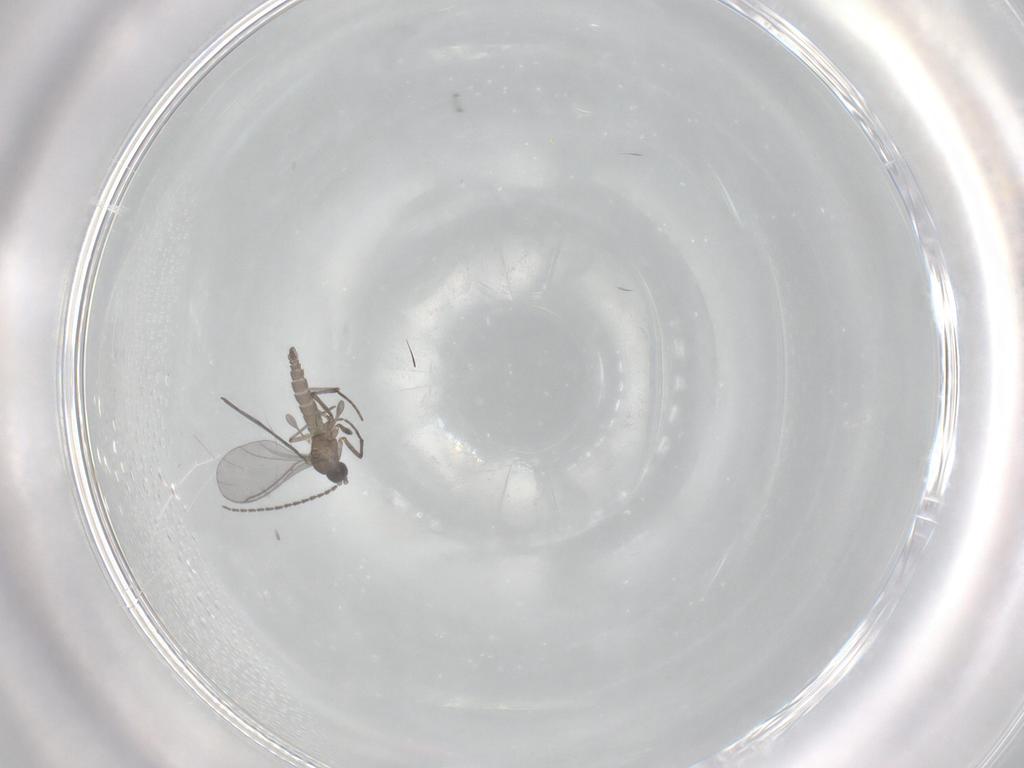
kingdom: Animalia
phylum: Arthropoda
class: Insecta
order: Diptera
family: Sciaridae
